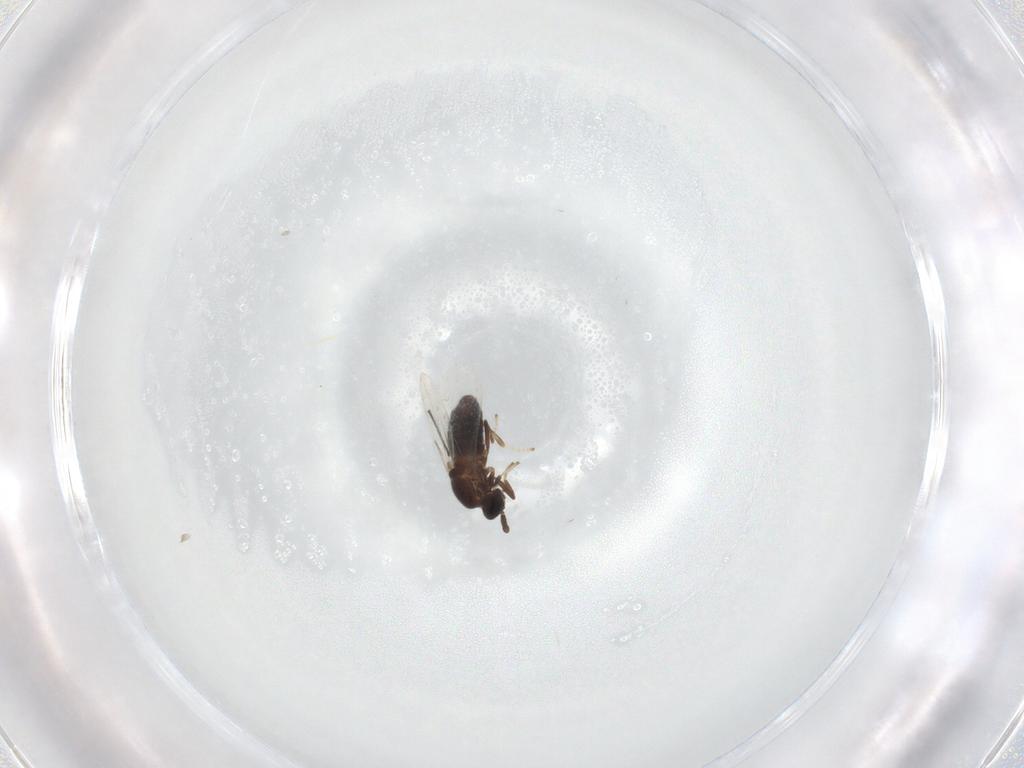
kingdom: Animalia
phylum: Arthropoda
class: Insecta
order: Diptera
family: Scatopsidae
